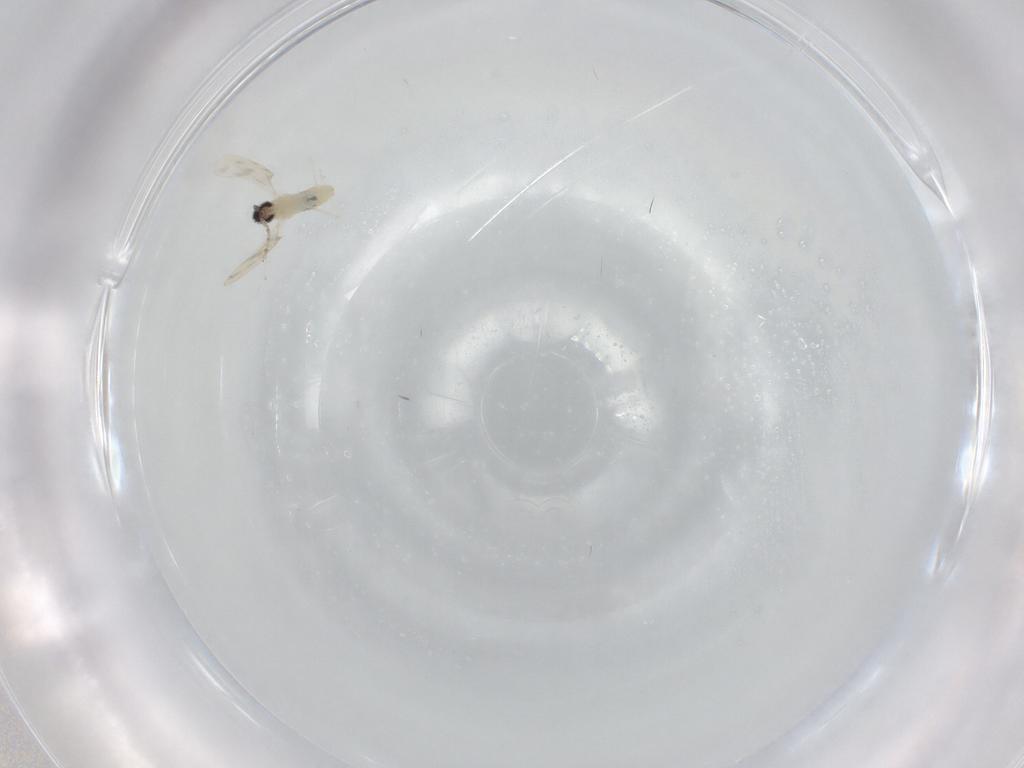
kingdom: Animalia
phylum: Arthropoda
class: Insecta
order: Diptera
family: Cecidomyiidae
